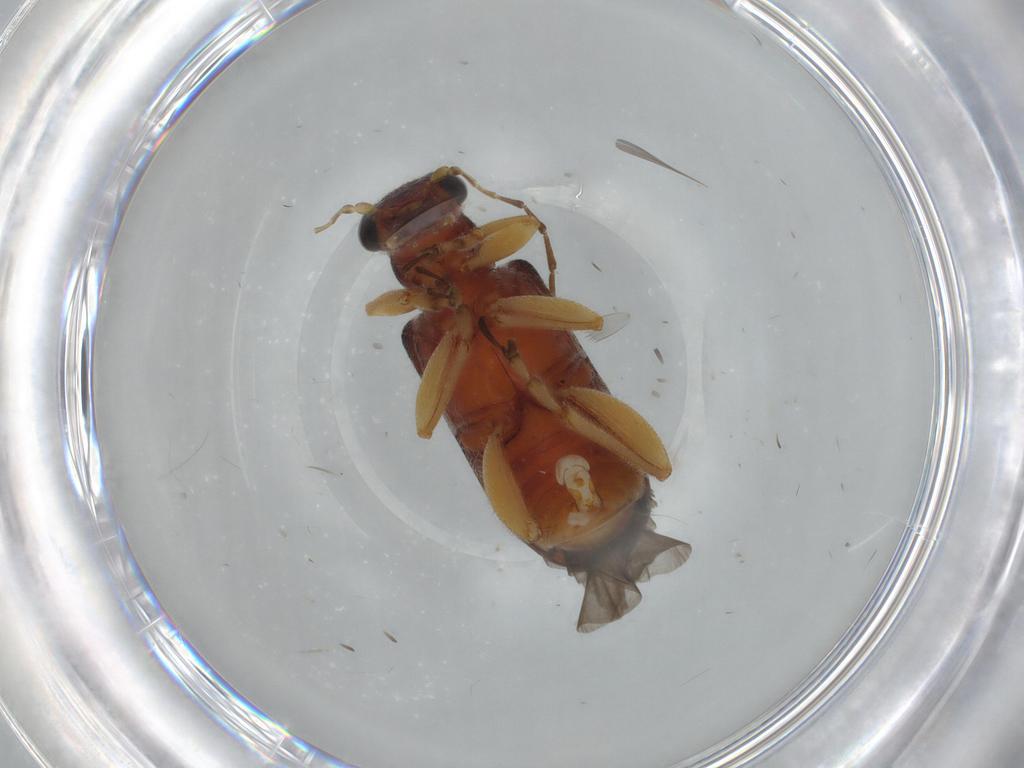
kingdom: Animalia
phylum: Arthropoda
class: Insecta
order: Coleoptera
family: Chrysomelidae
